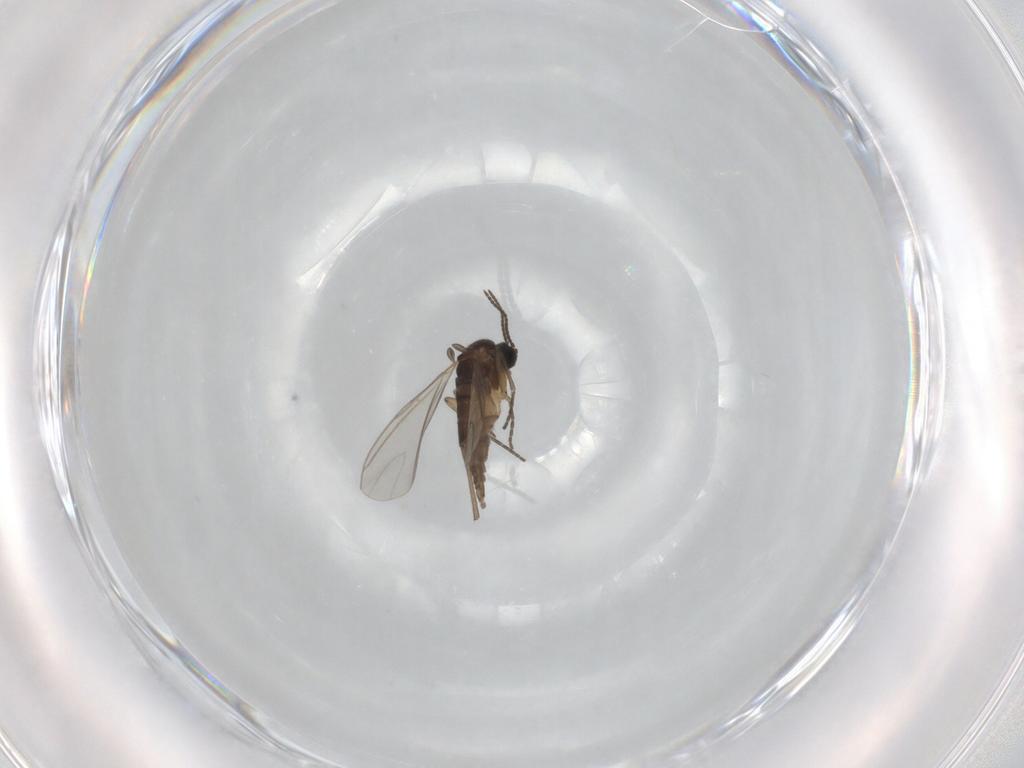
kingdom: Animalia
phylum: Arthropoda
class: Insecta
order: Diptera
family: Sciaridae
